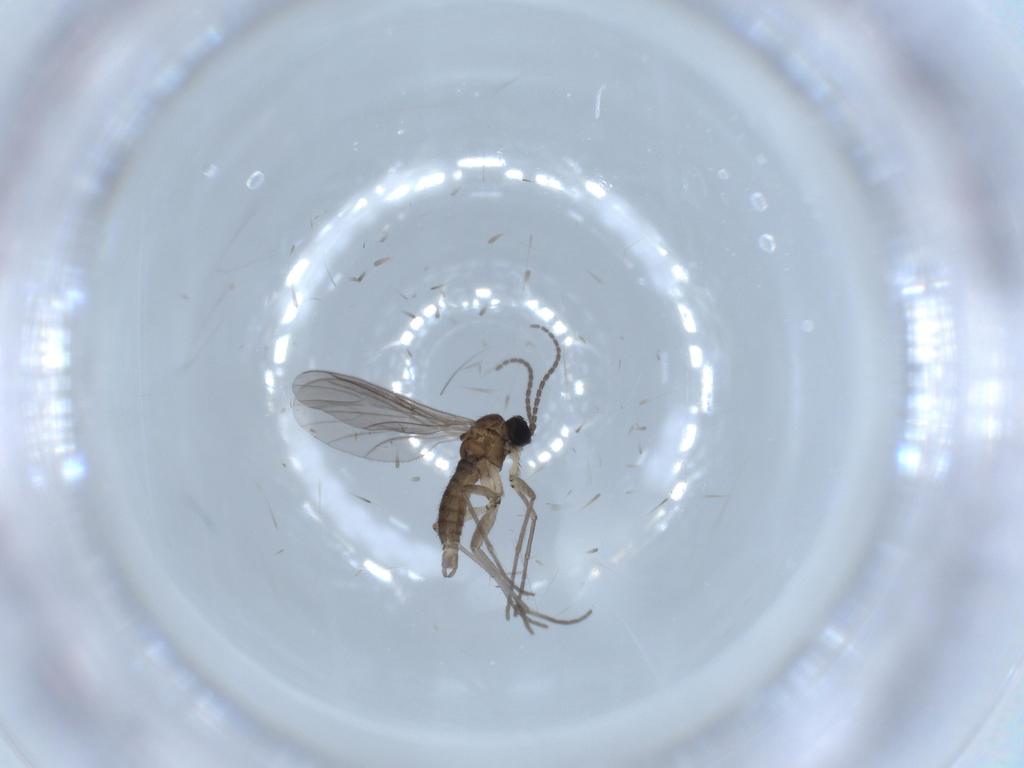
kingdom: Animalia
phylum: Arthropoda
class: Insecta
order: Diptera
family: Sciaridae
